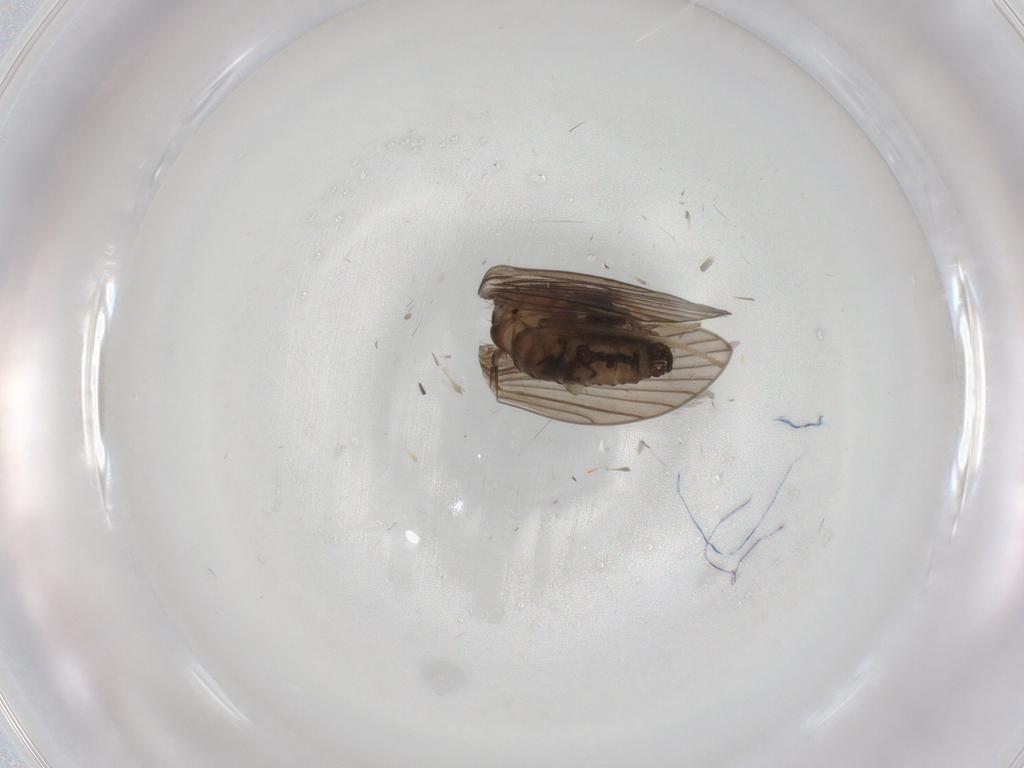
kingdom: Animalia
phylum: Arthropoda
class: Insecta
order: Diptera
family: Psychodidae
